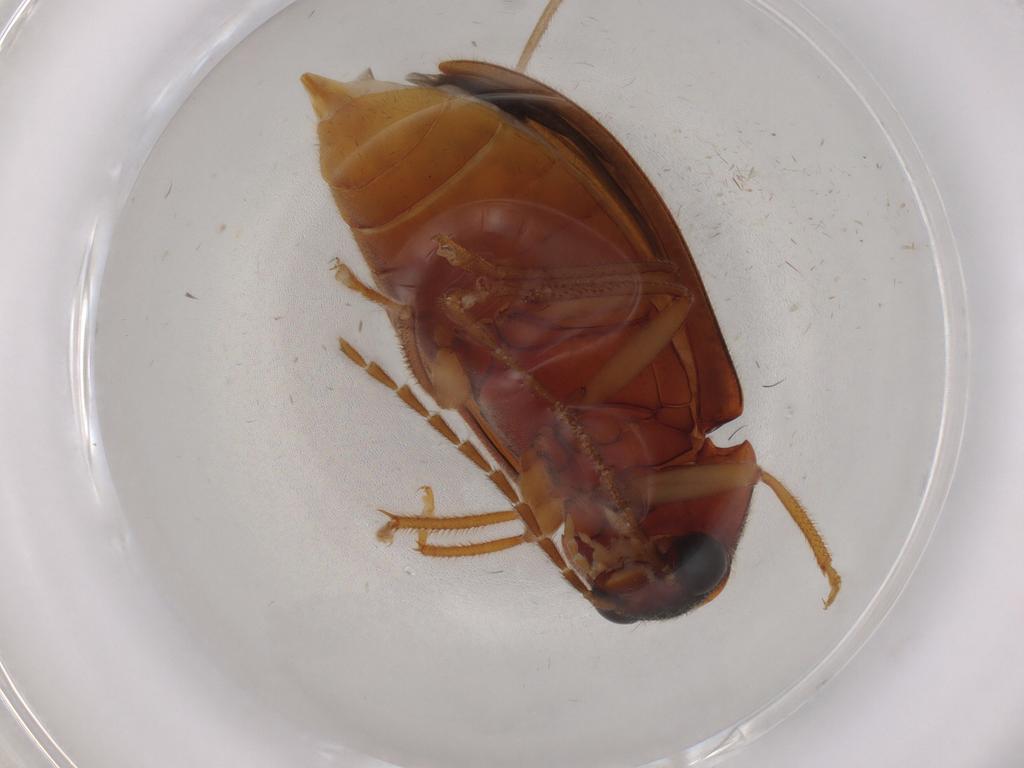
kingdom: Animalia
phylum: Arthropoda
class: Insecta
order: Coleoptera
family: Ptilodactylidae
